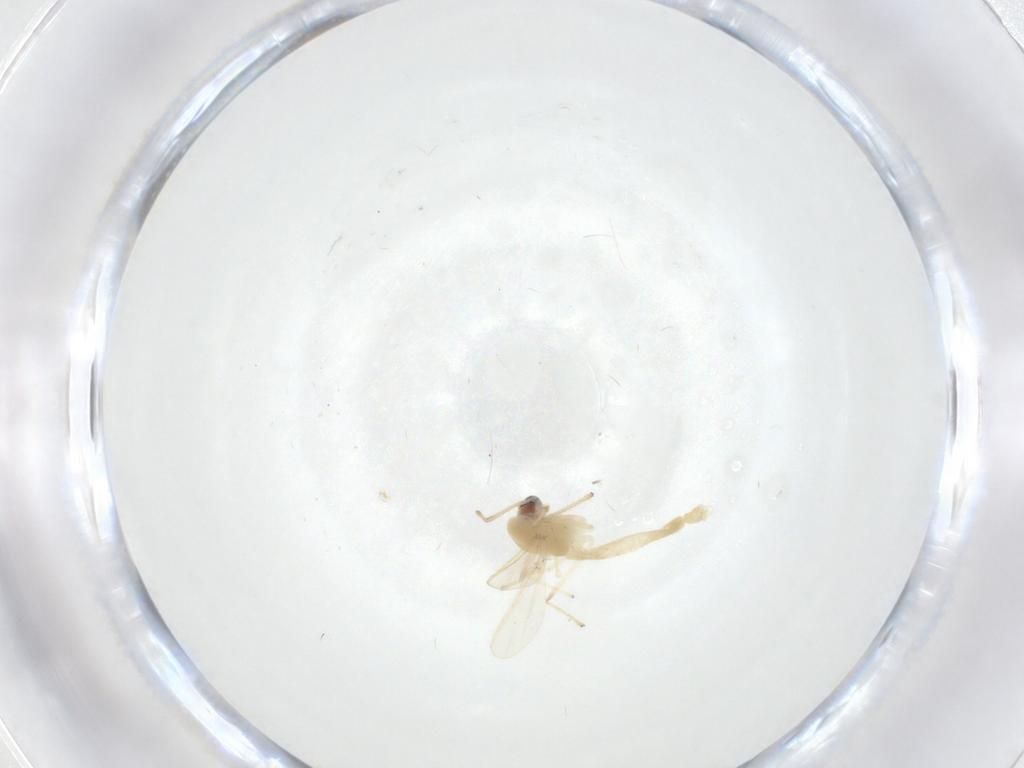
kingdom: Animalia
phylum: Arthropoda
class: Insecta
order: Diptera
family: Chironomidae
